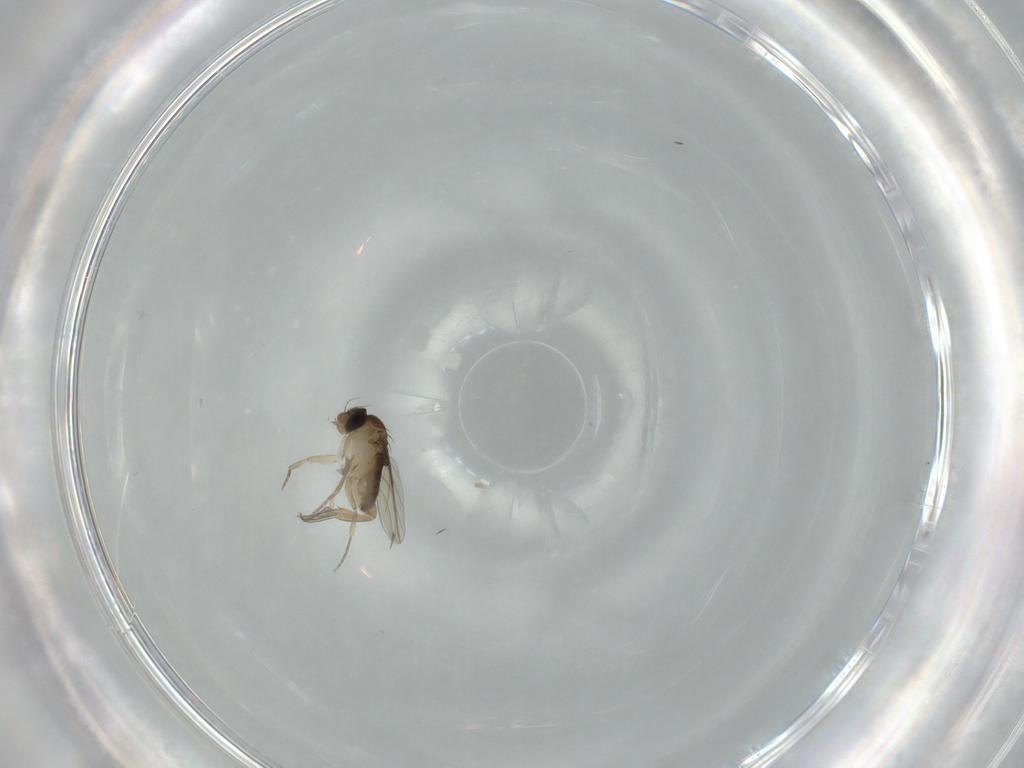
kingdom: Animalia
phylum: Arthropoda
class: Insecta
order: Diptera
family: Phoridae
